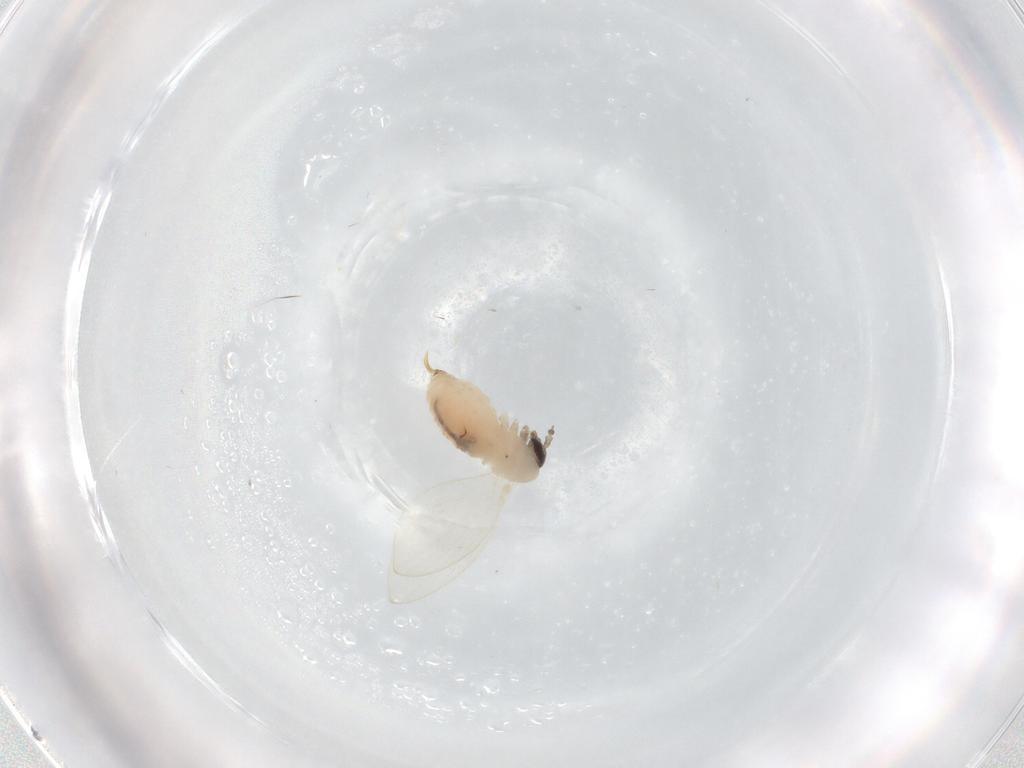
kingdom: Animalia
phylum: Arthropoda
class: Insecta
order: Diptera
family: Psychodidae
